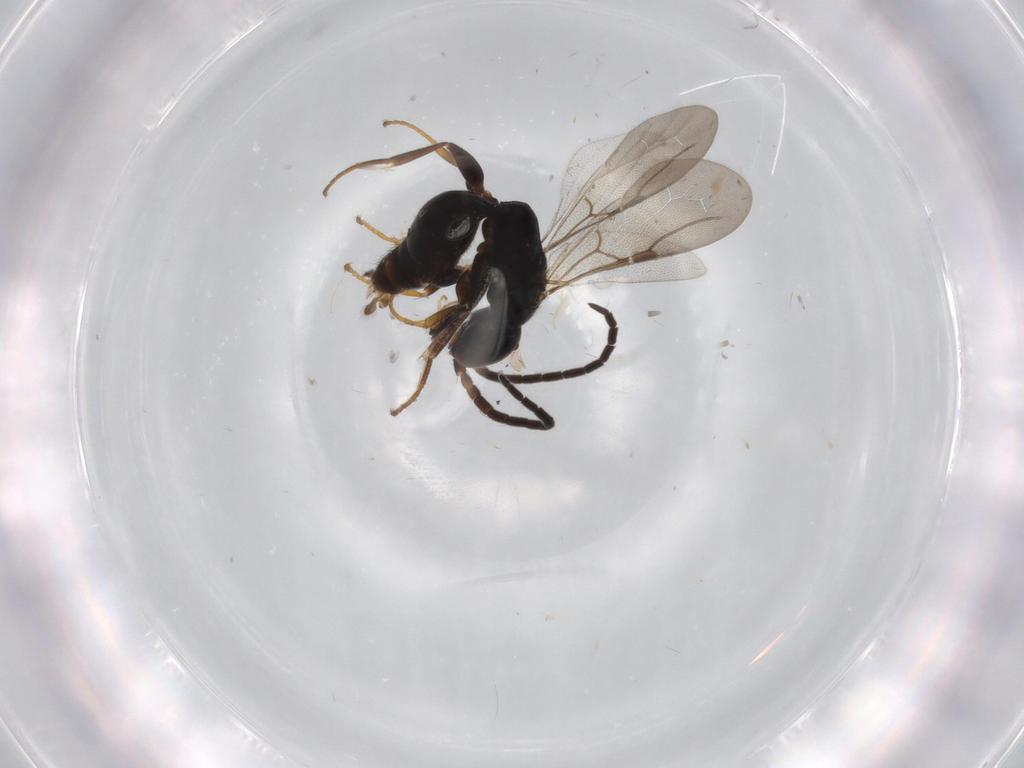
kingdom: Animalia
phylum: Arthropoda
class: Insecta
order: Hymenoptera
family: Bethylidae
